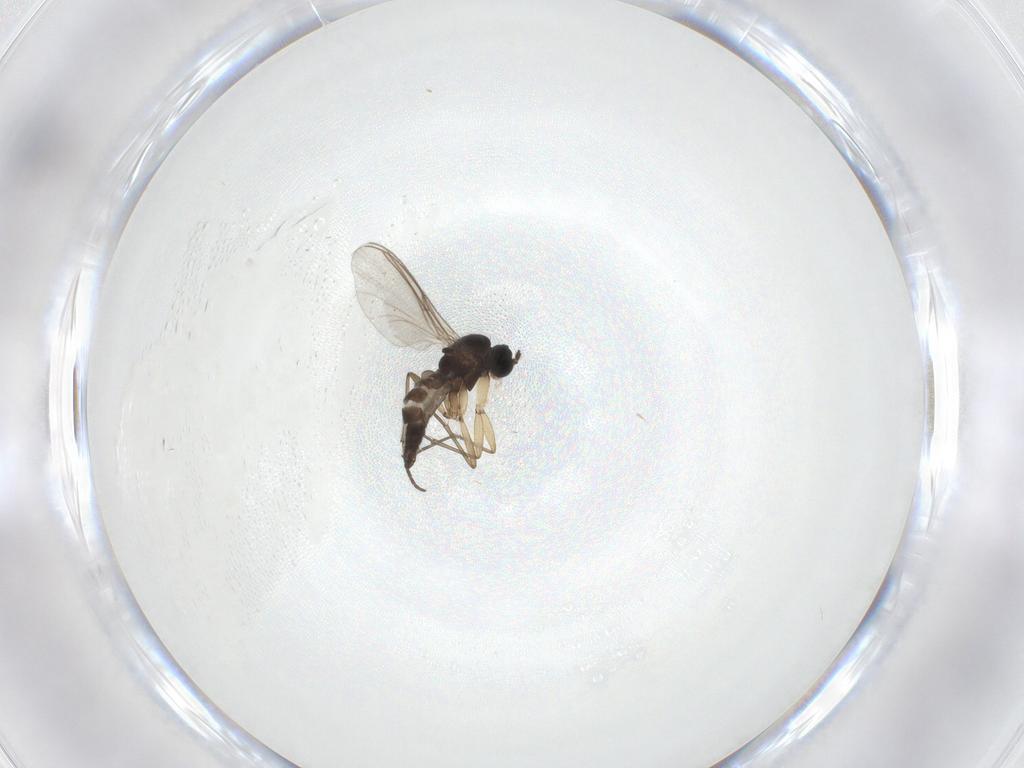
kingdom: Animalia
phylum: Arthropoda
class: Insecta
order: Diptera
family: Sciaridae
